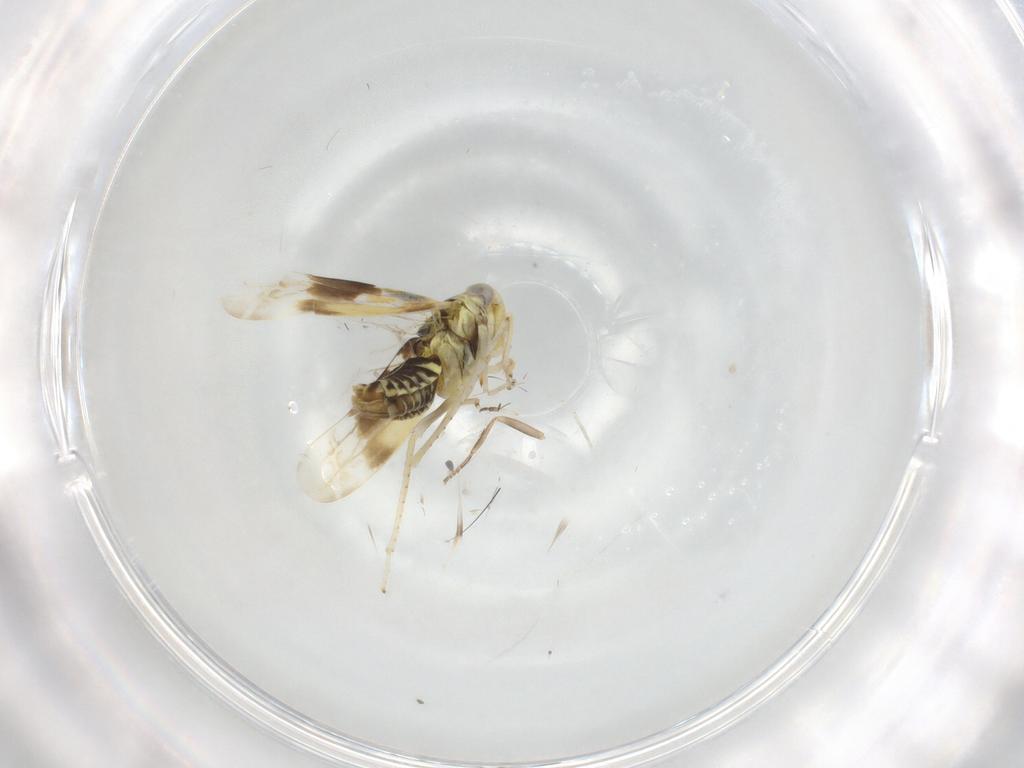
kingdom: Animalia
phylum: Arthropoda
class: Insecta
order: Hemiptera
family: Cicadellidae
